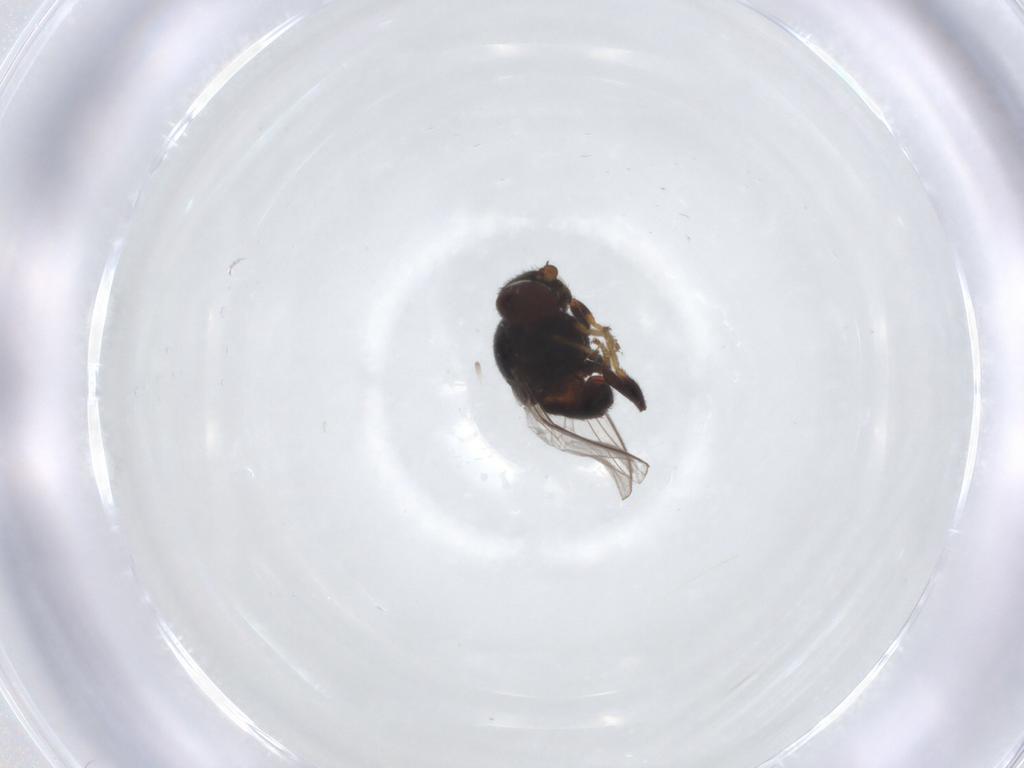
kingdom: Animalia
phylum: Arthropoda
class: Insecta
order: Diptera
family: Chloropidae
